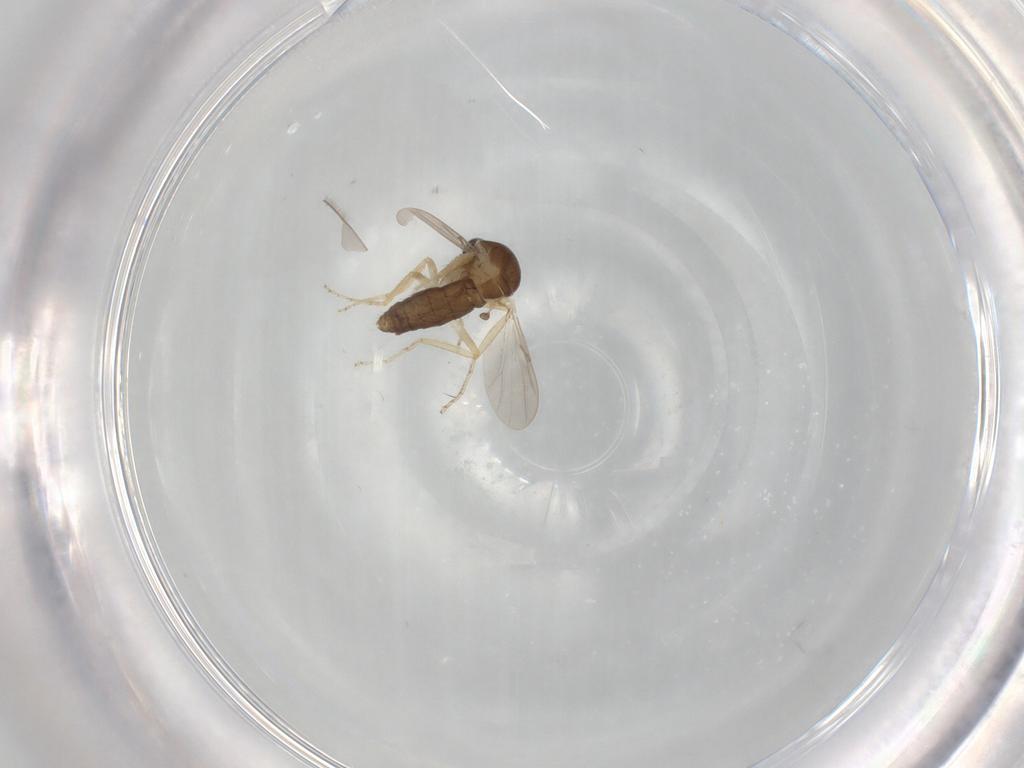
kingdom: Animalia
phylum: Arthropoda
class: Insecta
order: Diptera
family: Ceratopogonidae
